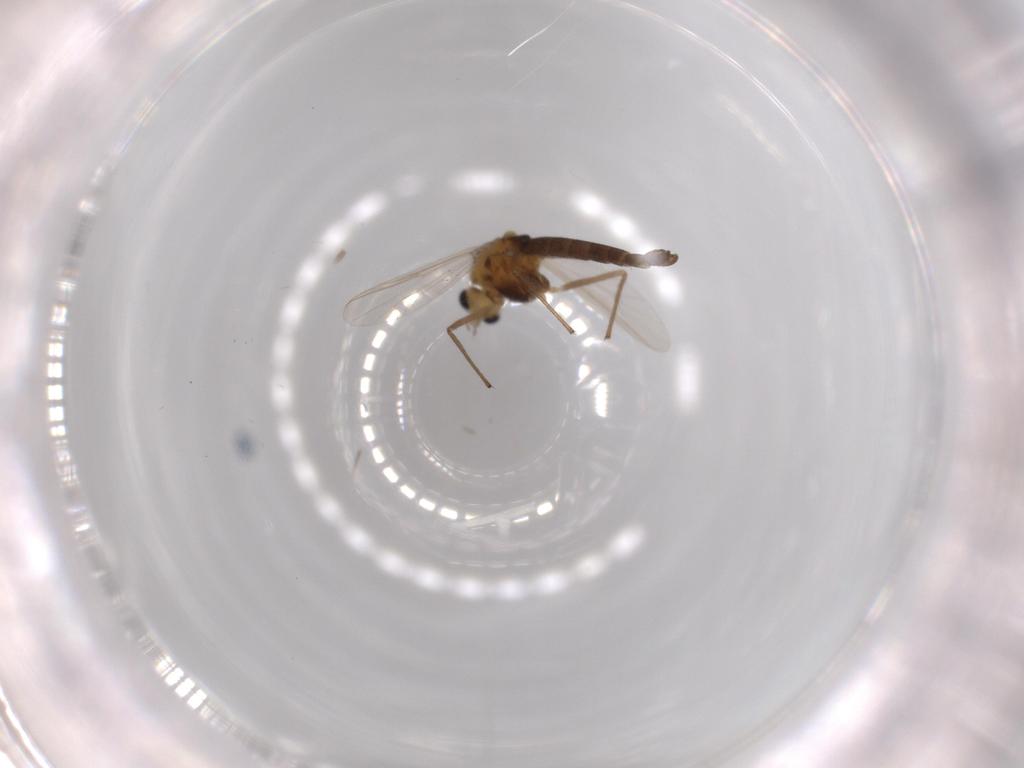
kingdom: Animalia
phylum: Arthropoda
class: Insecta
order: Diptera
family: Chironomidae
